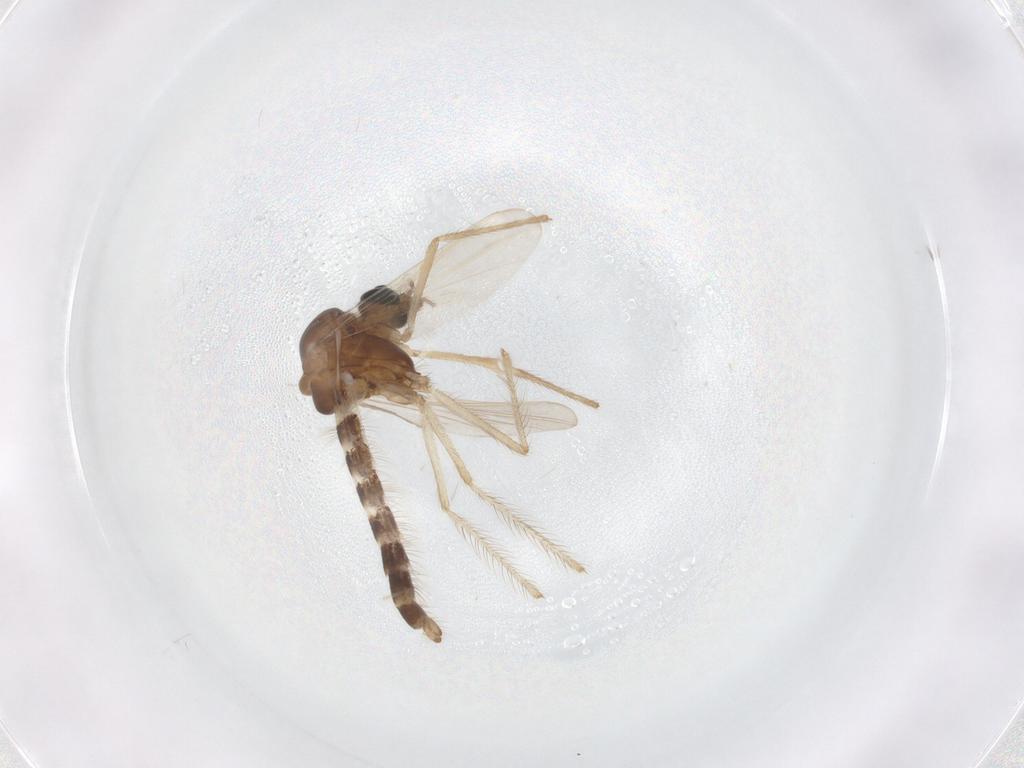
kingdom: Animalia
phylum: Arthropoda
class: Insecta
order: Diptera
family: Chironomidae
